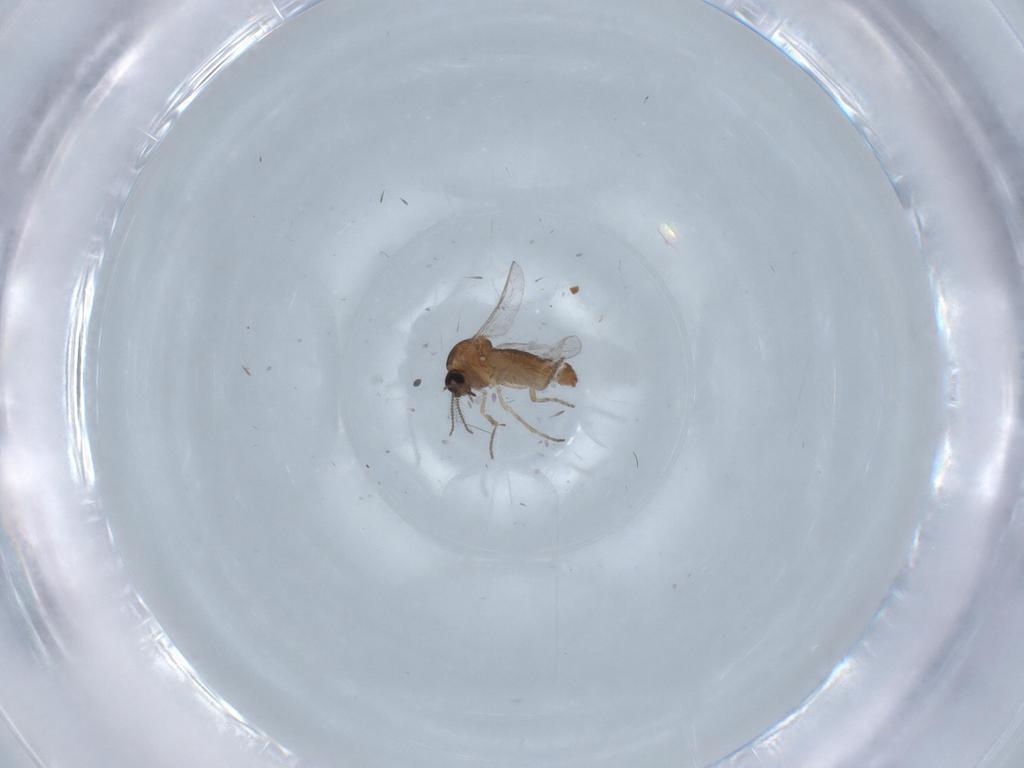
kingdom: Animalia
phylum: Arthropoda
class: Insecta
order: Diptera
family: Ceratopogonidae
